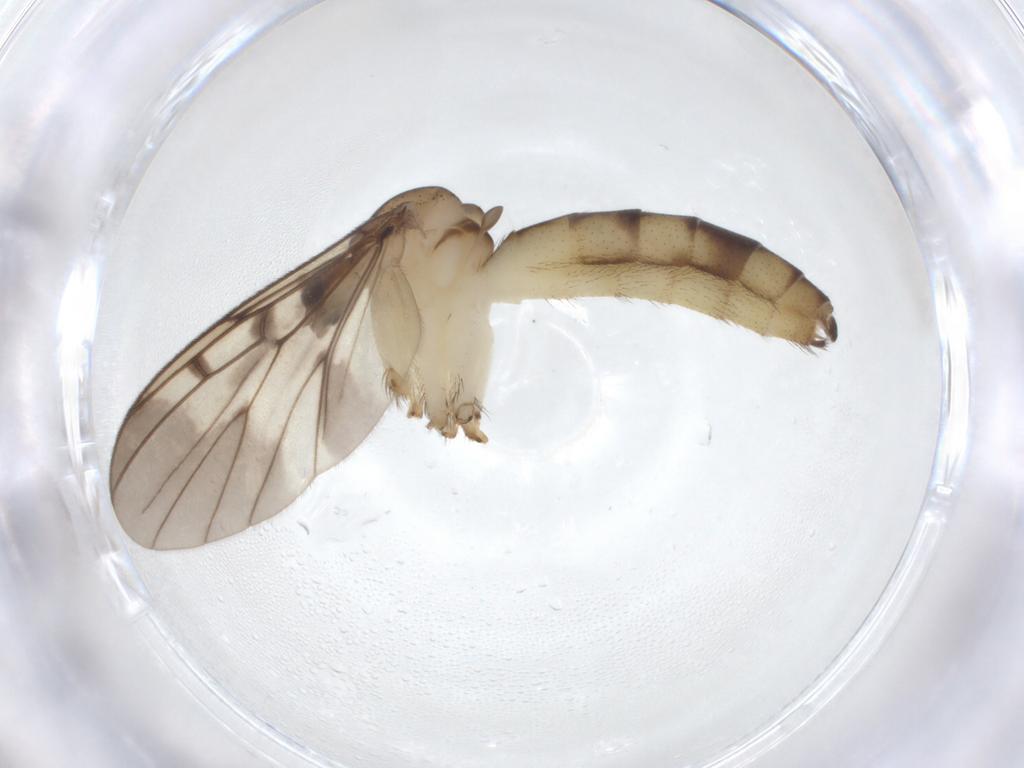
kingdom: Animalia
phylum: Arthropoda
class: Insecta
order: Diptera
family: Mycetophilidae
